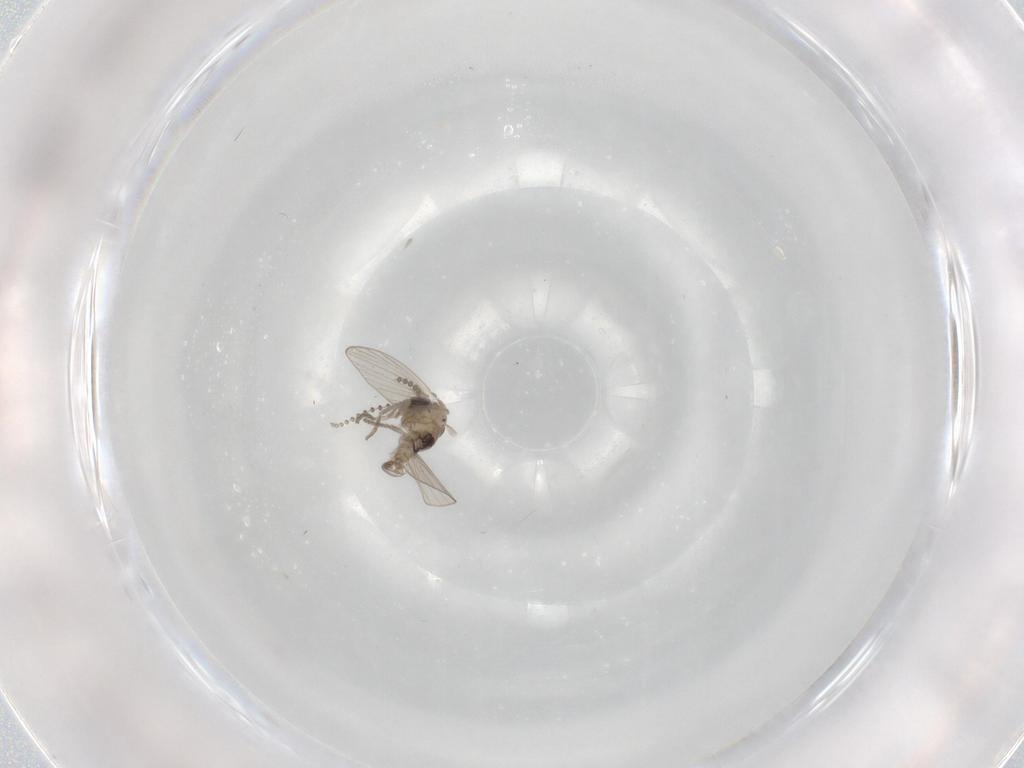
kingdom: Animalia
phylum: Arthropoda
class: Insecta
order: Diptera
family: Psychodidae
